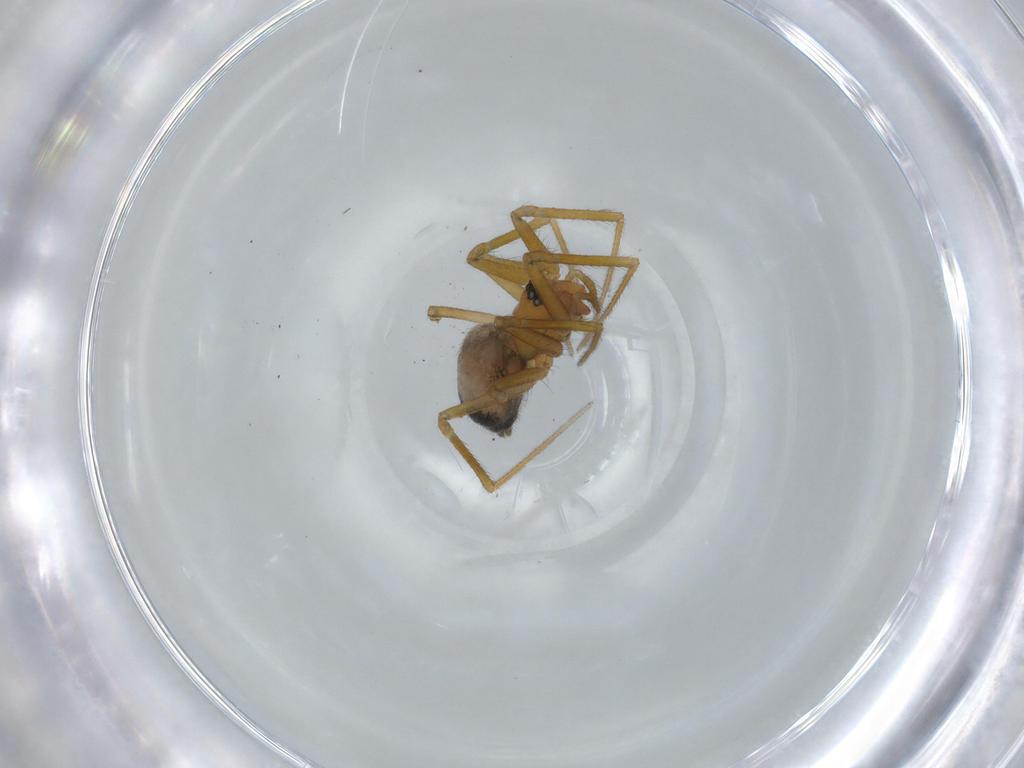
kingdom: Animalia
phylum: Arthropoda
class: Arachnida
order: Araneae
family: Linyphiidae
